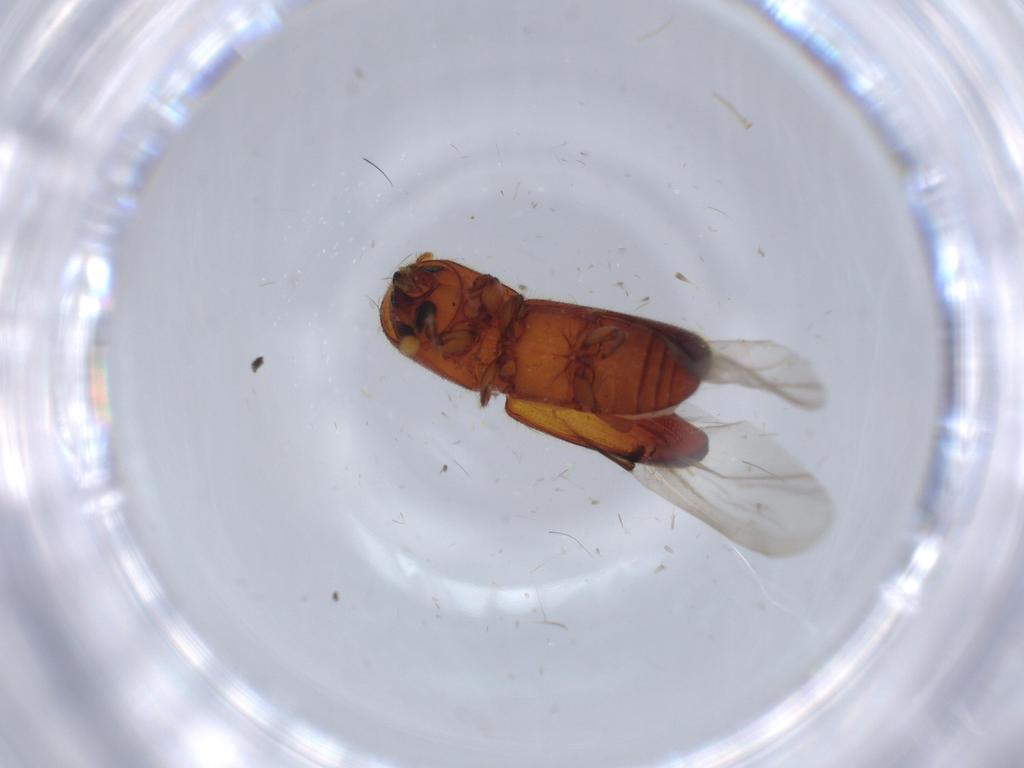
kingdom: Animalia
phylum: Arthropoda
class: Insecta
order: Coleoptera
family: Curculionidae
